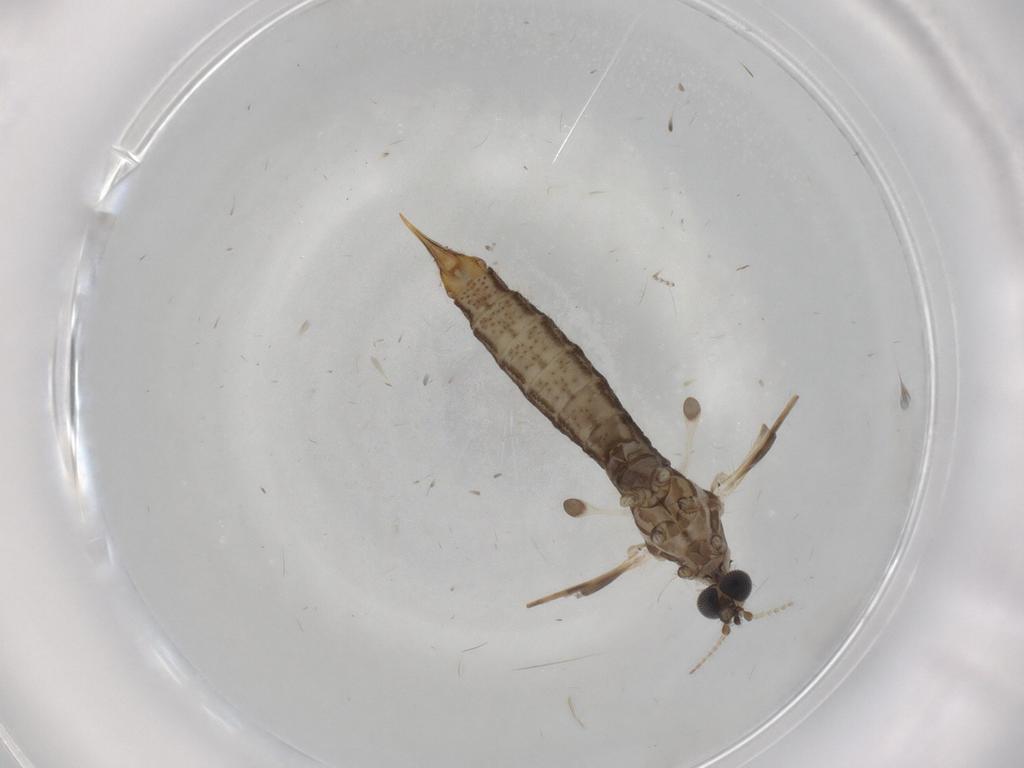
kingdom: Animalia
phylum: Arthropoda
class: Insecta
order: Diptera
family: Limoniidae
